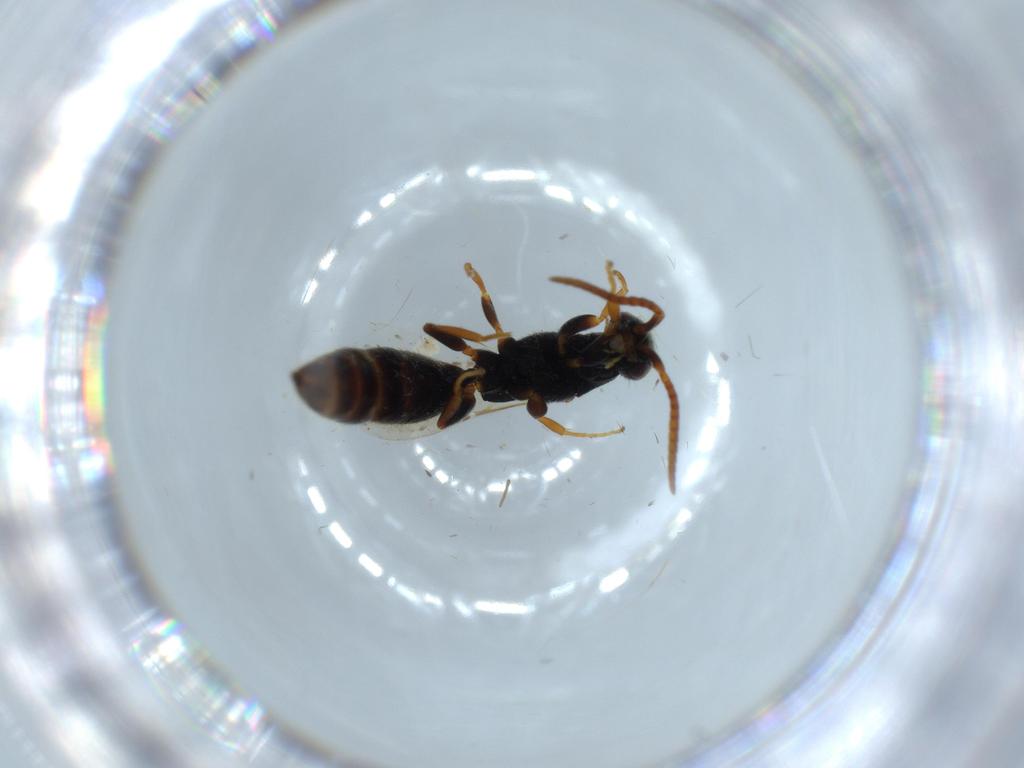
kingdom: Animalia
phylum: Arthropoda
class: Insecta
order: Hymenoptera
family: Bethylidae
